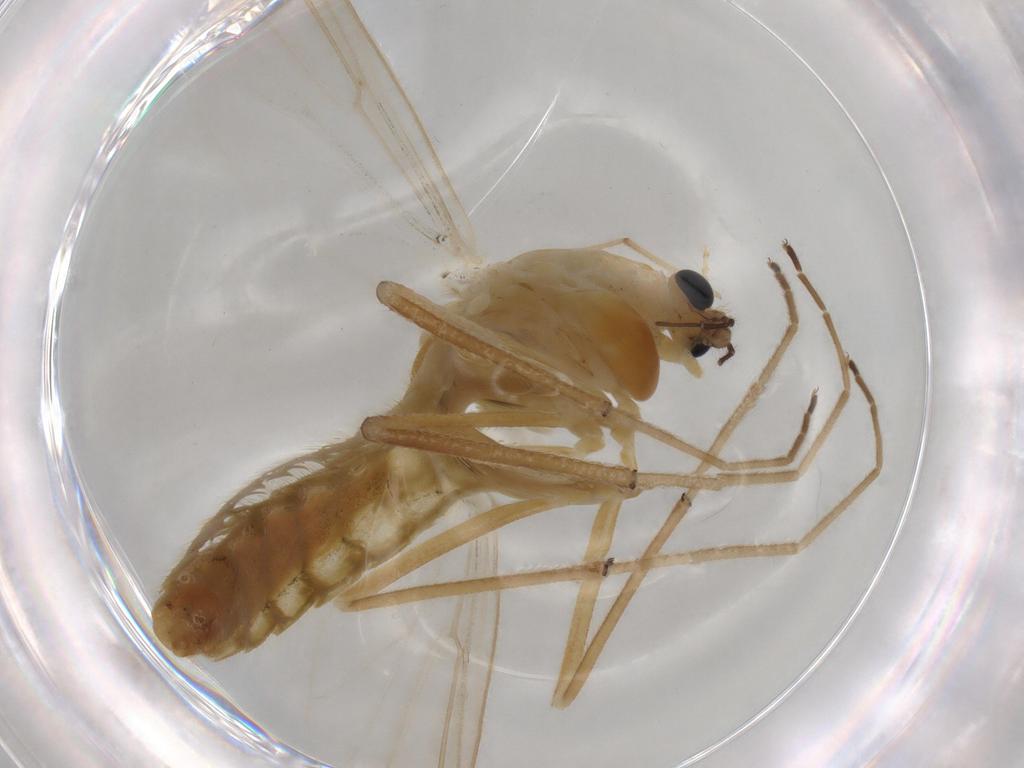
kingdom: Animalia
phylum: Arthropoda
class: Insecta
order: Diptera
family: Chironomidae
